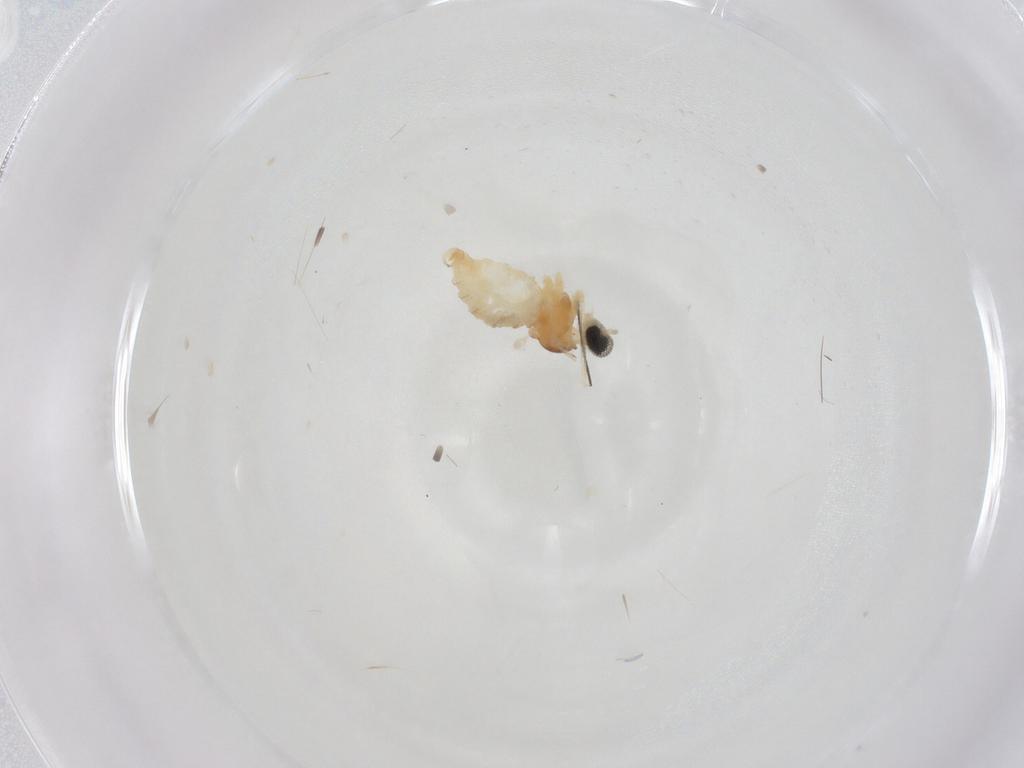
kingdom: Animalia
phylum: Arthropoda
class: Insecta
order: Diptera
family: Cecidomyiidae
